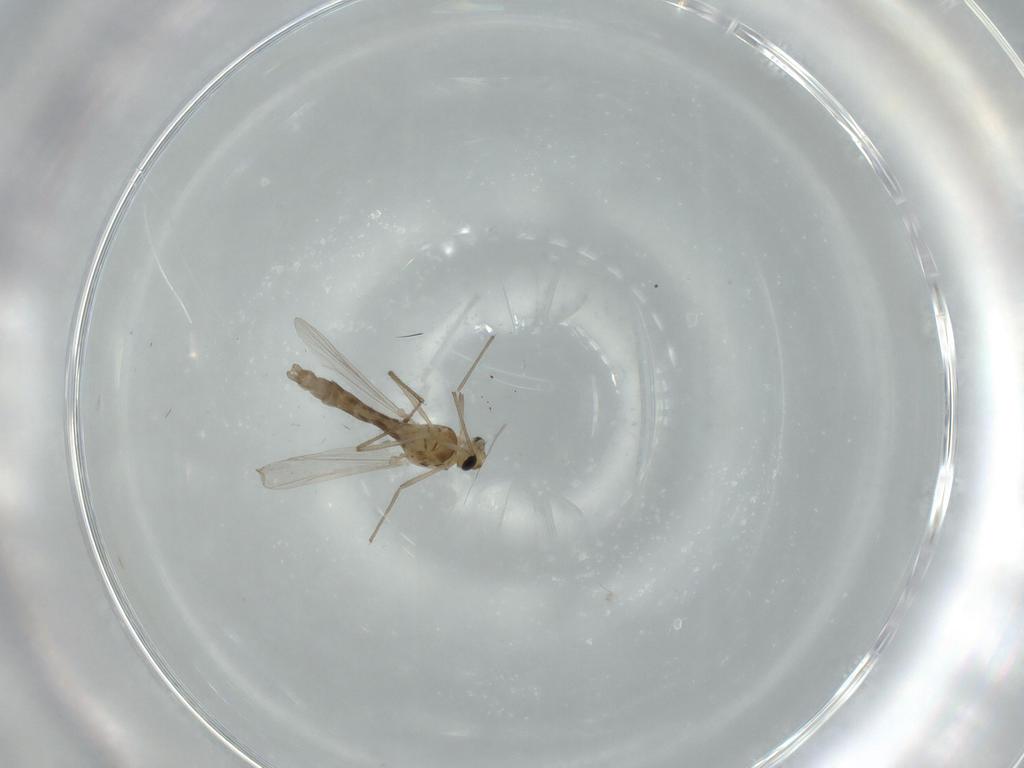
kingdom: Animalia
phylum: Arthropoda
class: Insecta
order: Diptera
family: Chironomidae
